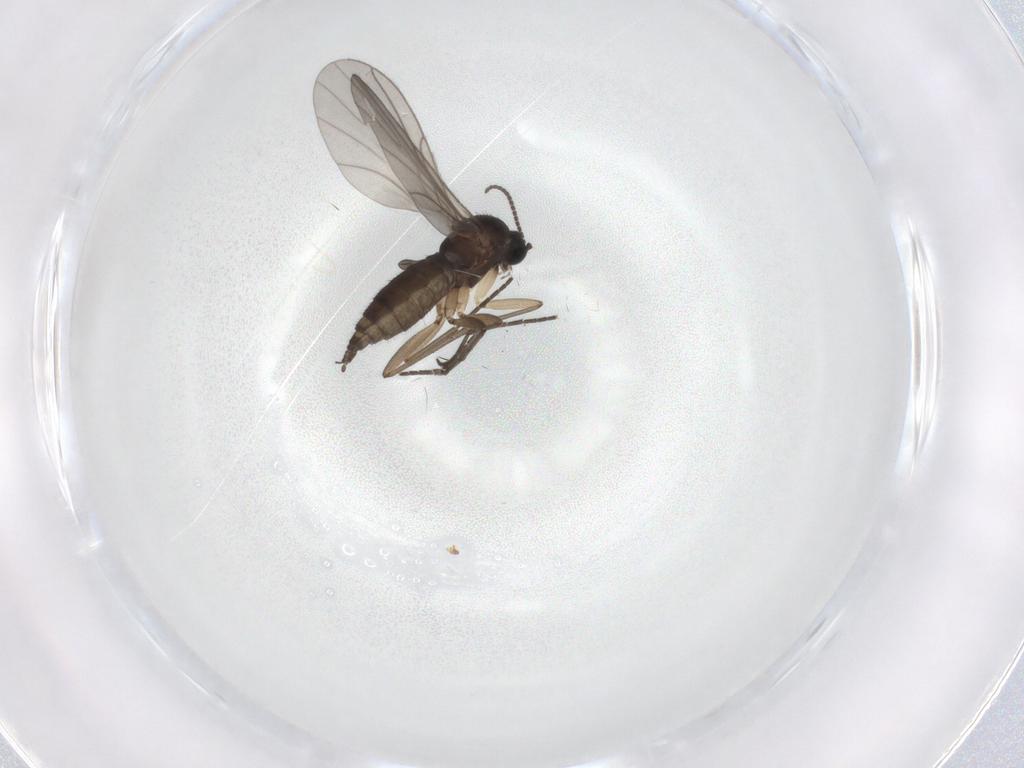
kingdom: Animalia
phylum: Arthropoda
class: Insecta
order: Diptera
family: Sciaridae
